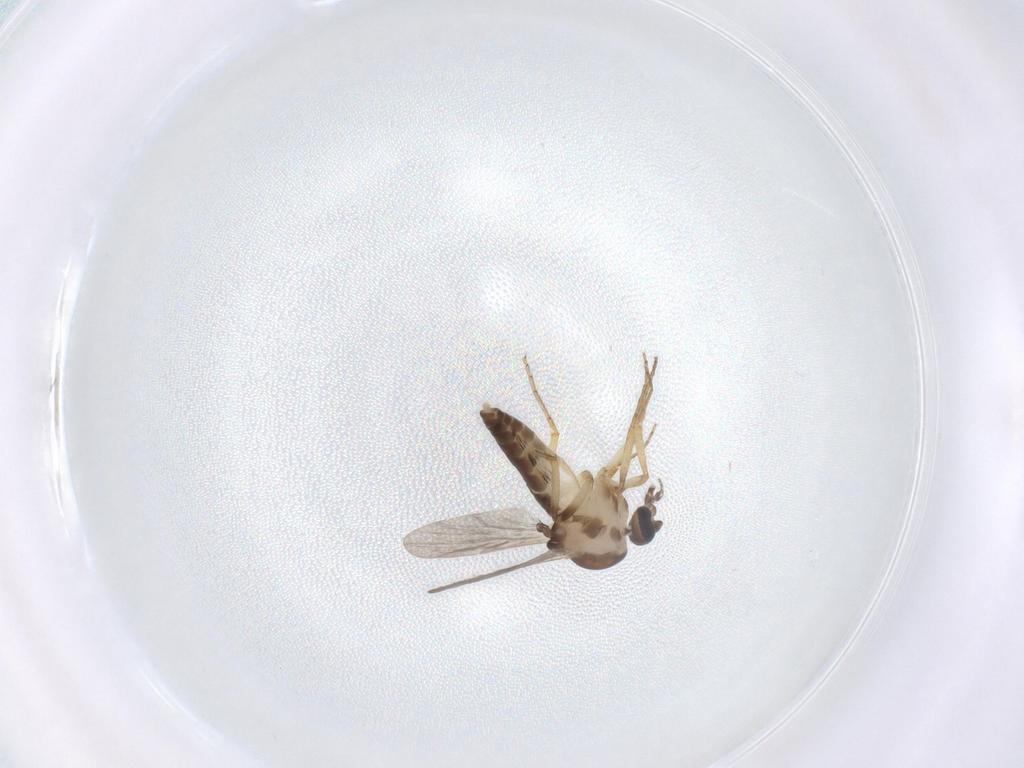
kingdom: Animalia
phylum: Arthropoda
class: Insecta
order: Diptera
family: Ceratopogonidae
